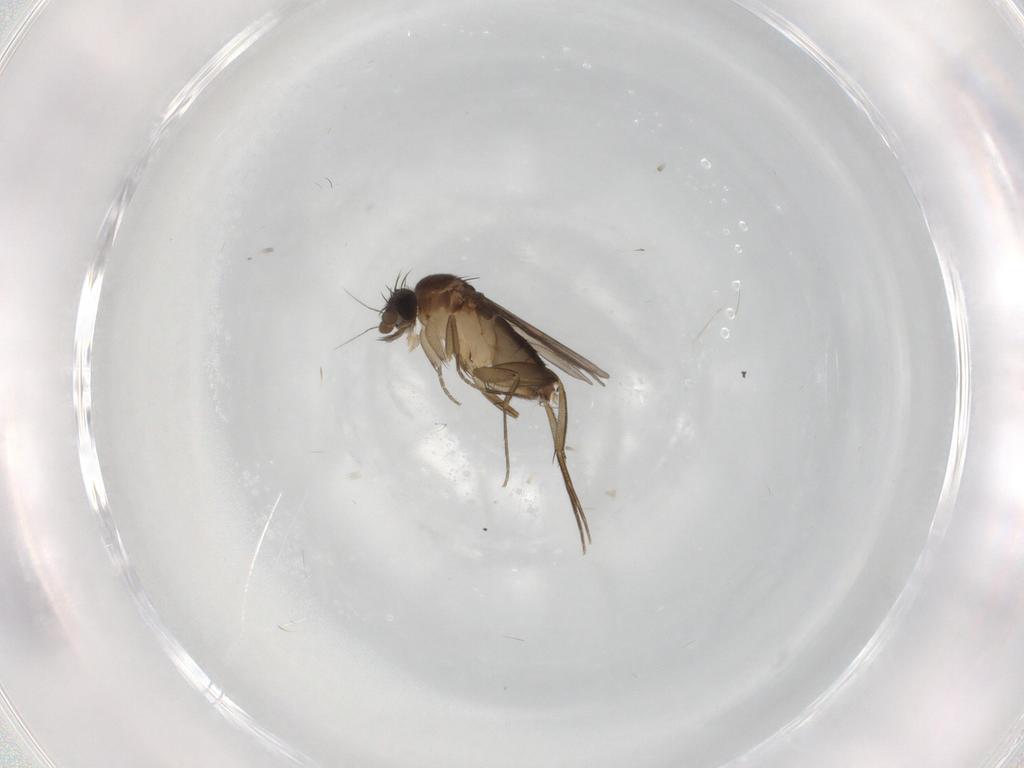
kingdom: Animalia
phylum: Arthropoda
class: Insecta
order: Diptera
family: Phoridae
